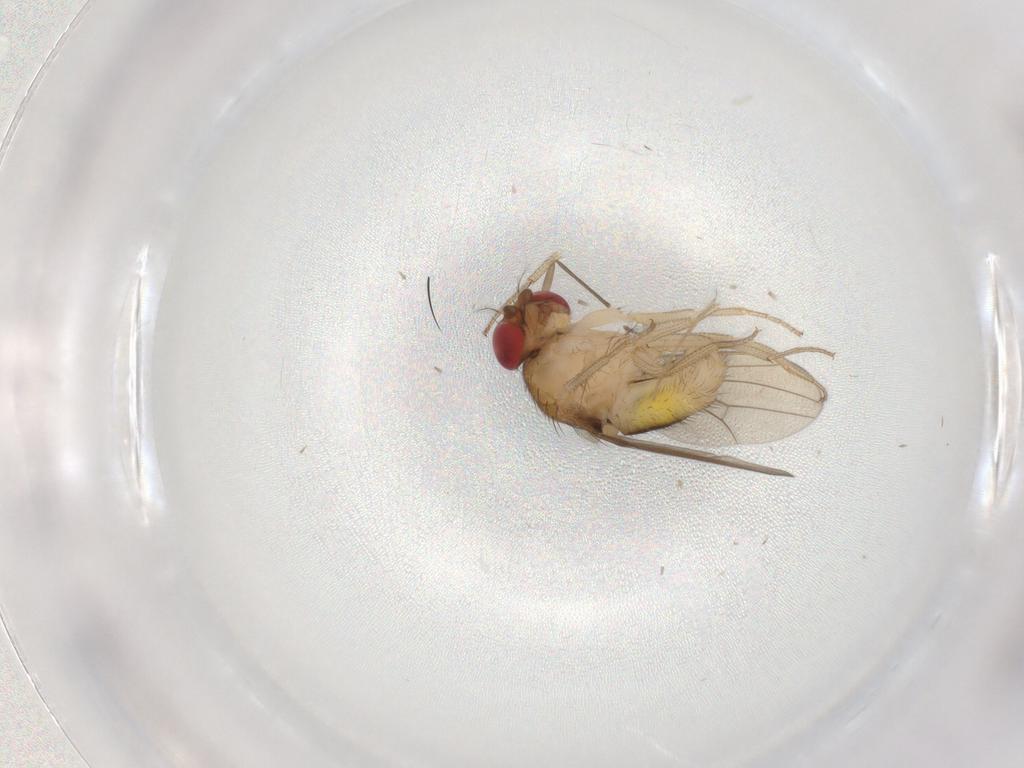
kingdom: Animalia
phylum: Arthropoda
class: Insecta
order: Diptera
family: Drosophilidae
